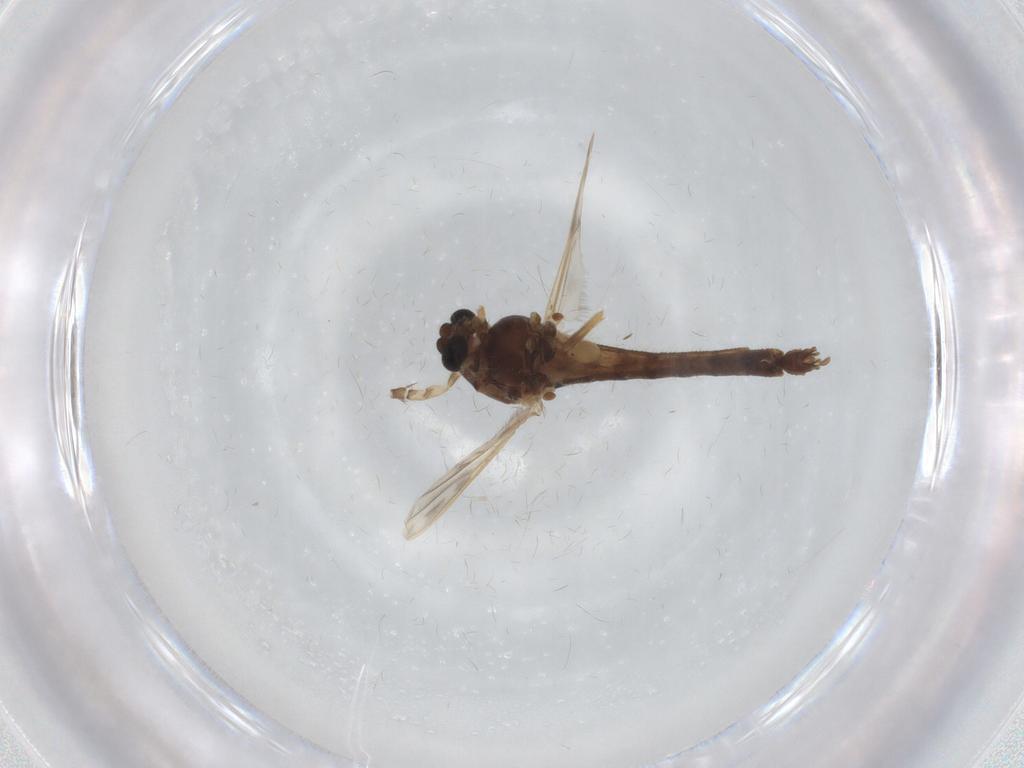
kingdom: Animalia
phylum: Arthropoda
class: Insecta
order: Diptera
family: Chironomidae
